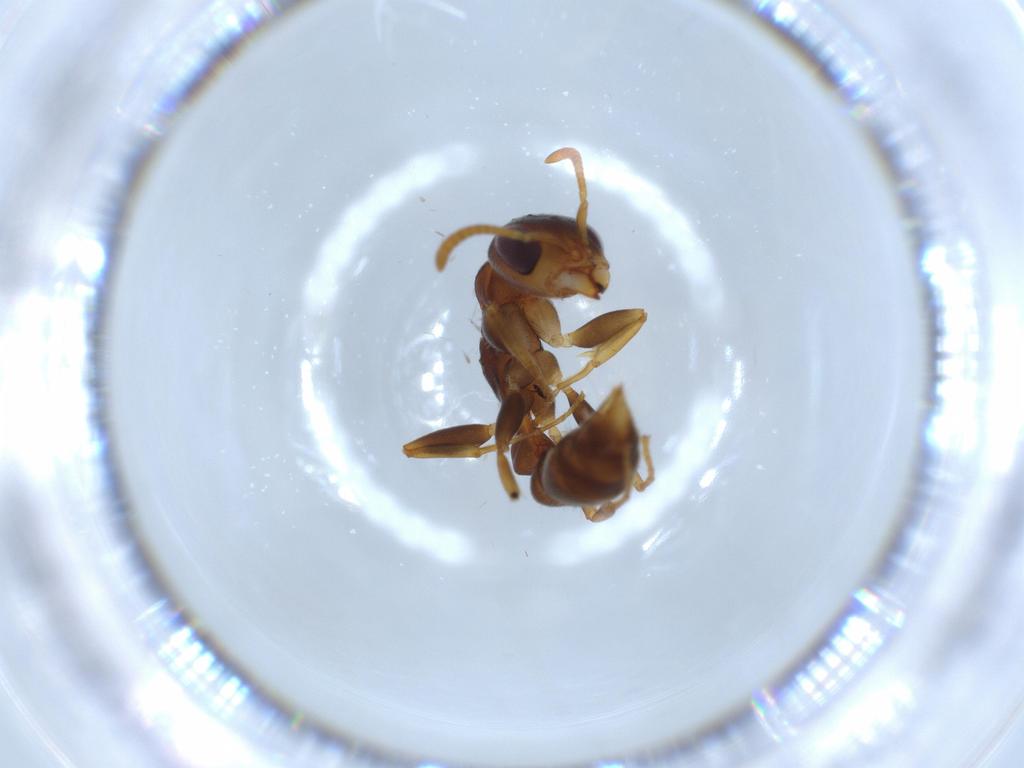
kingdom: Animalia
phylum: Arthropoda
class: Insecta
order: Hymenoptera
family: Formicidae
